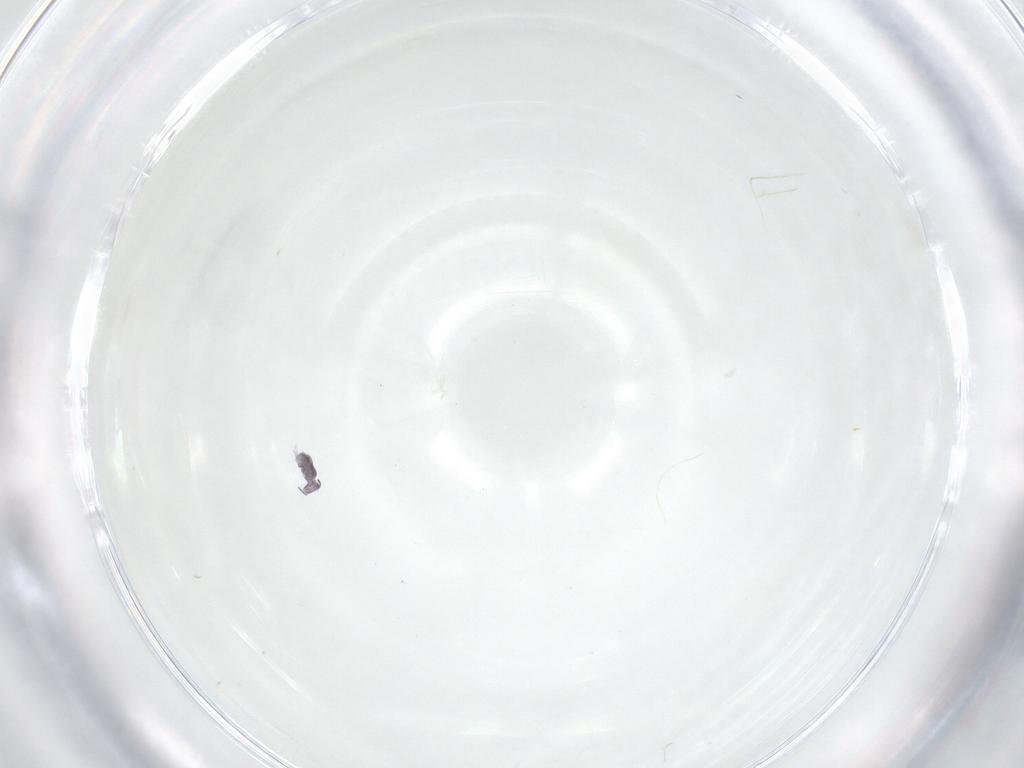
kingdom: Animalia
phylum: Arthropoda
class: Collembola
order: Symphypleona
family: Sminthurididae
